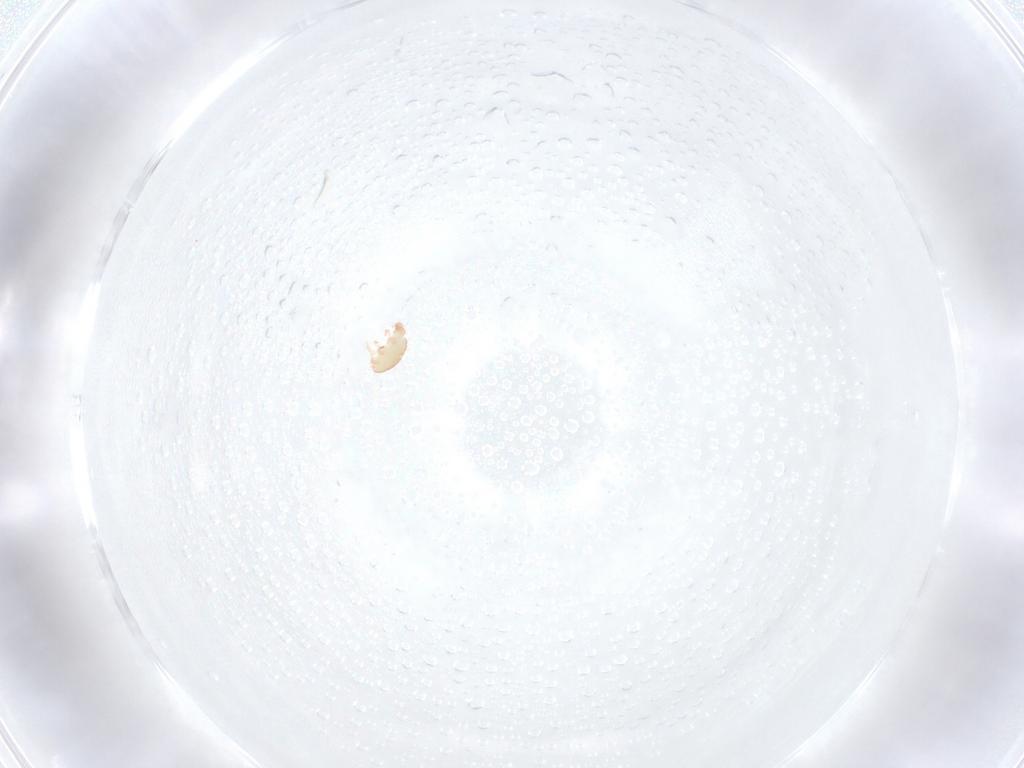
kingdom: Animalia
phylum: Arthropoda
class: Arachnida
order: Trombidiformes
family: Stigmaeidae
